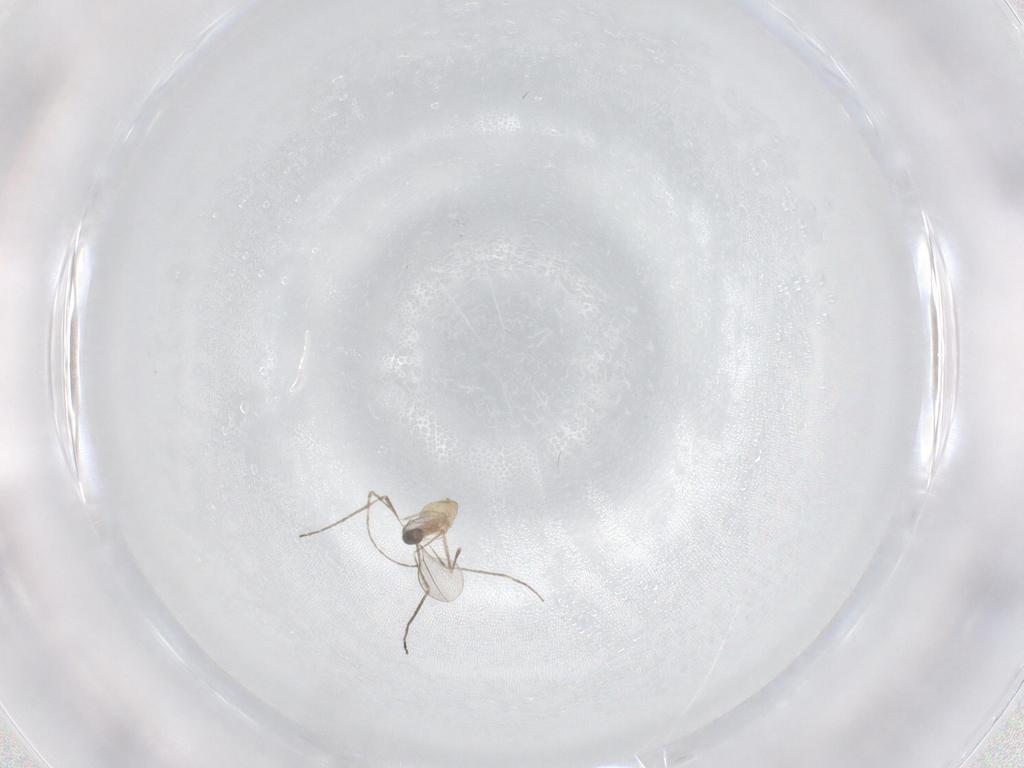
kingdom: Animalia
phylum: Arthropoda
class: Insecta
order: Diptera
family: Cecidomyiidae
